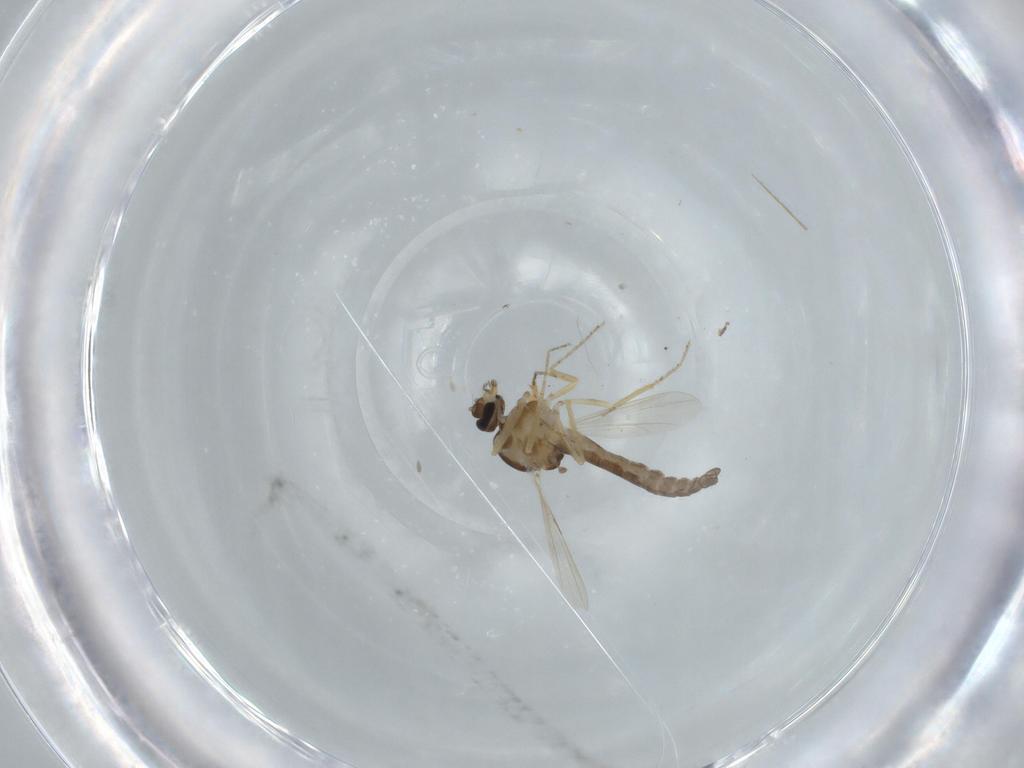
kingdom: Animalia
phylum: Arthropoda
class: Insecta
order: Diptera
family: Ceratopogonidae
